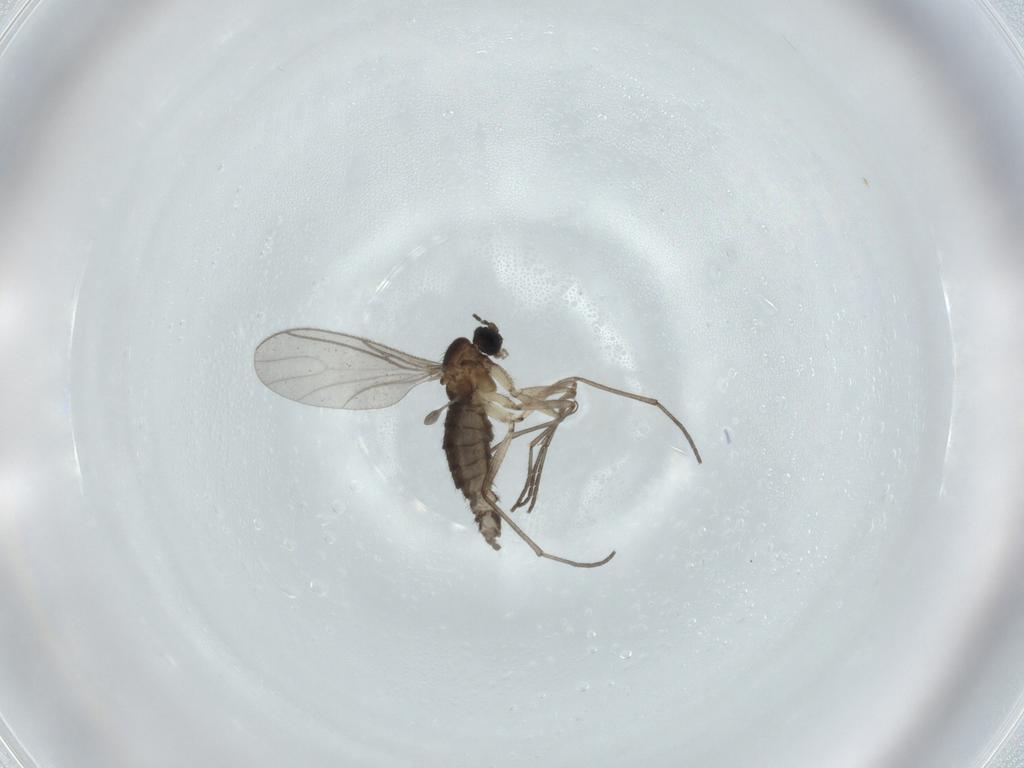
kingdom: Animalia
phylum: Arthropoda
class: Insecta
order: Diptera
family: Sciaridae
